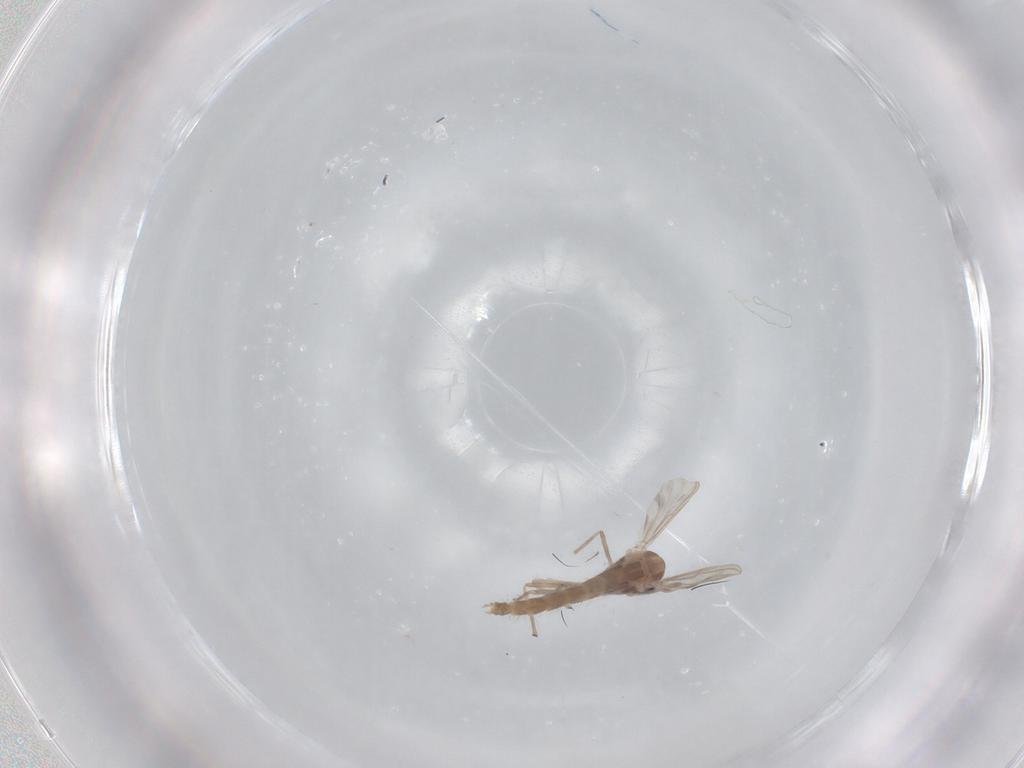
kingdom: Animalia
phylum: Arthropoda
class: Insecta
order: Diptera
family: Chironomidae
